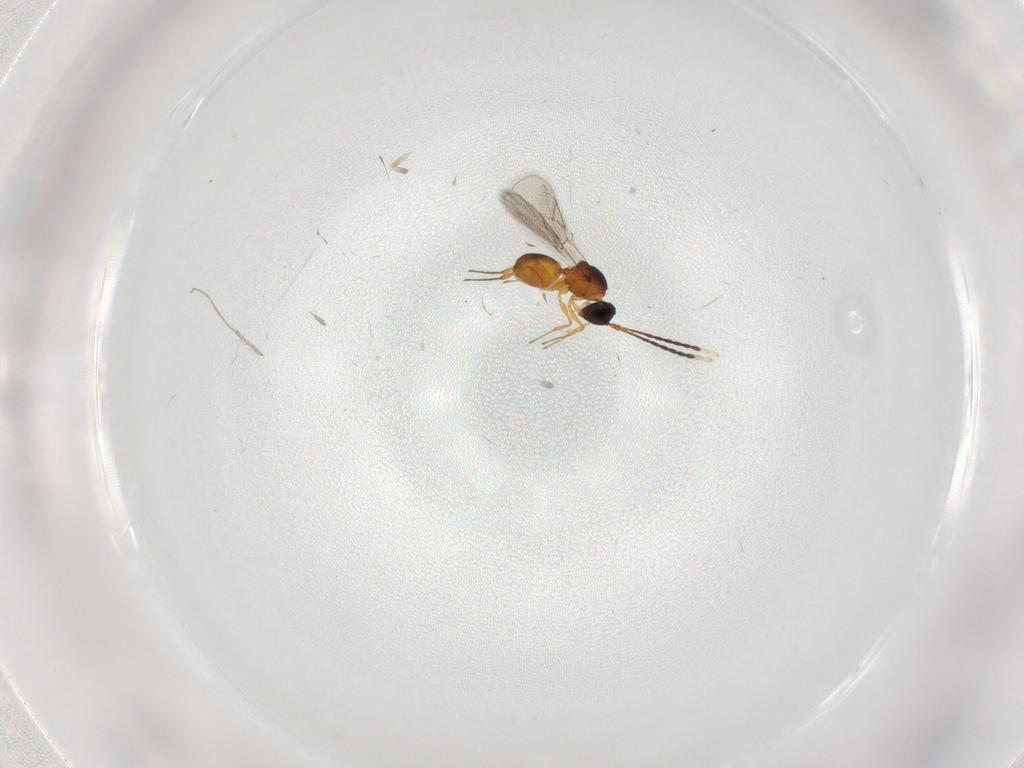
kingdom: Animalia
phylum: Arthropoda
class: Insecta
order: Hymenoptera
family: Figitidae
